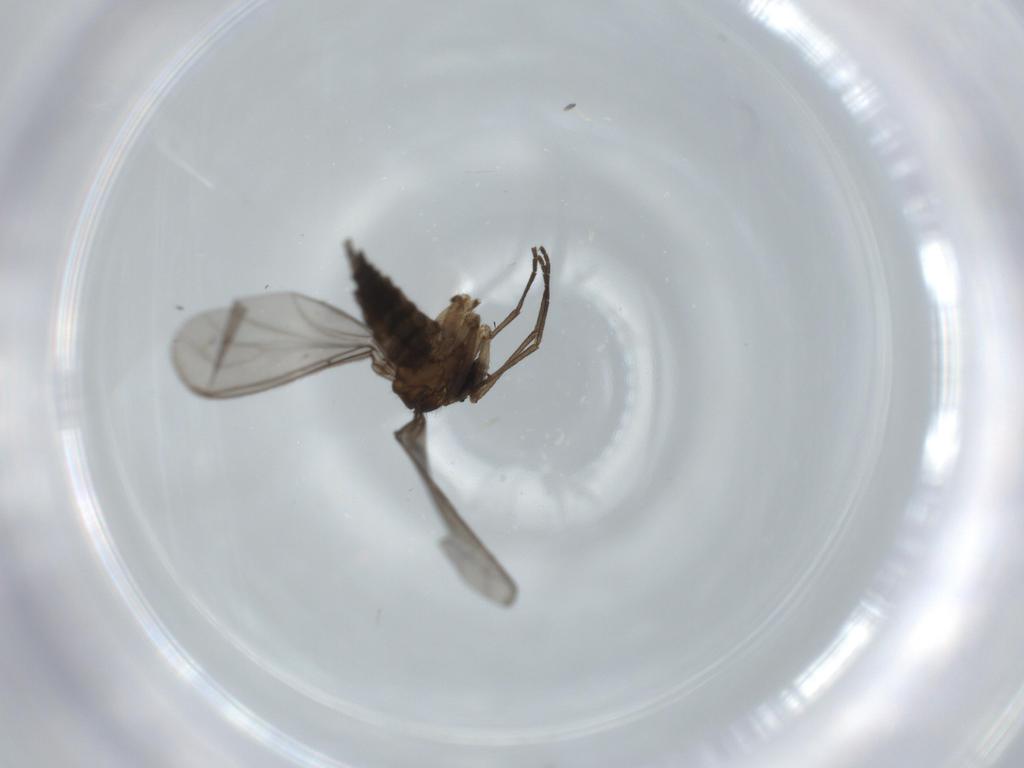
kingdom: Animalia
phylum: Arthropoda
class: Insecta
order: Diptera
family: Sciaridae
